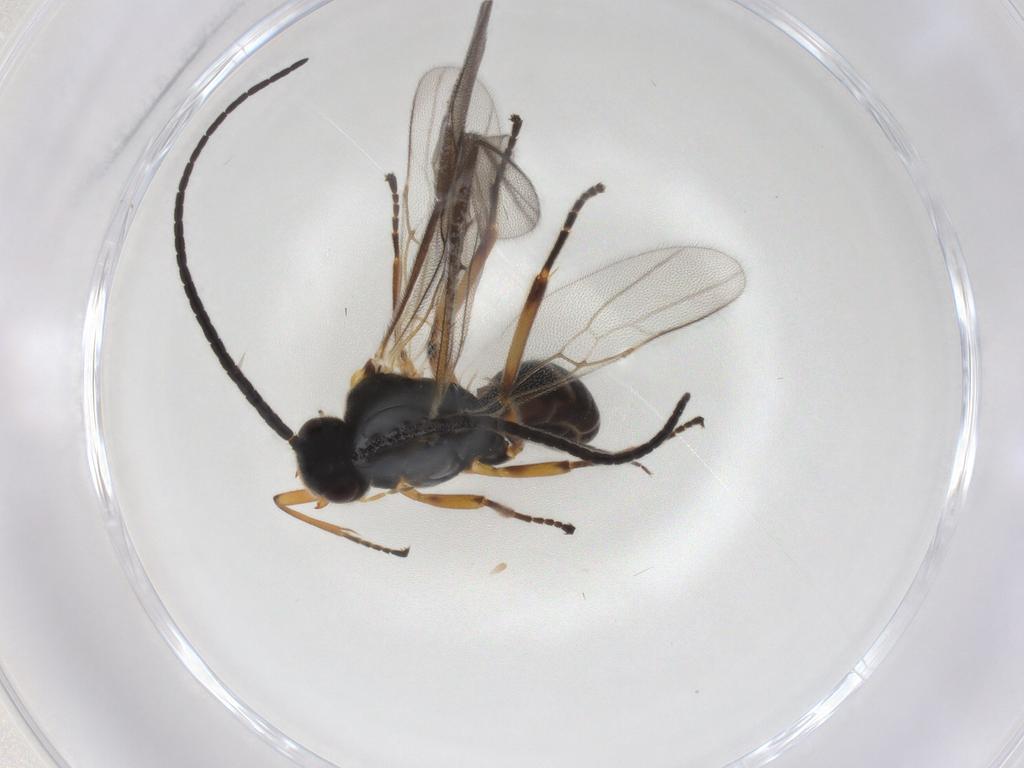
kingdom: Animalia
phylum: Arthropoda
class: Insecta
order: Hymenoptera
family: Braconidae
